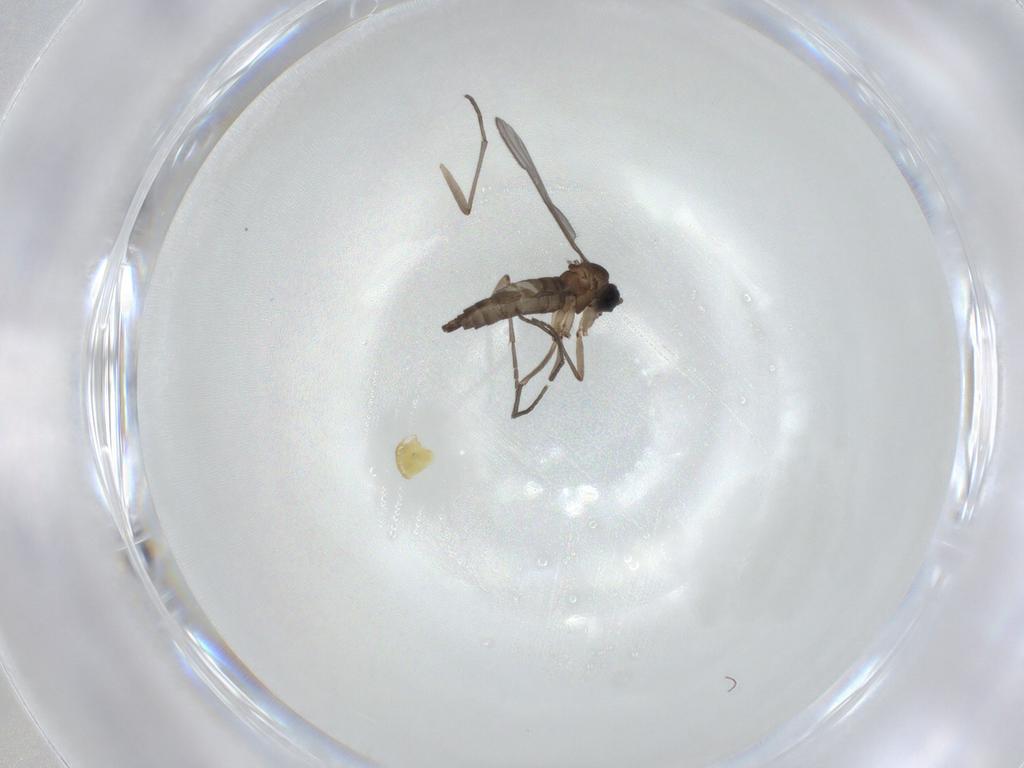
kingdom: Animalia
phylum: Arthropoda
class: Insecta
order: Diptera
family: Sciaridae
